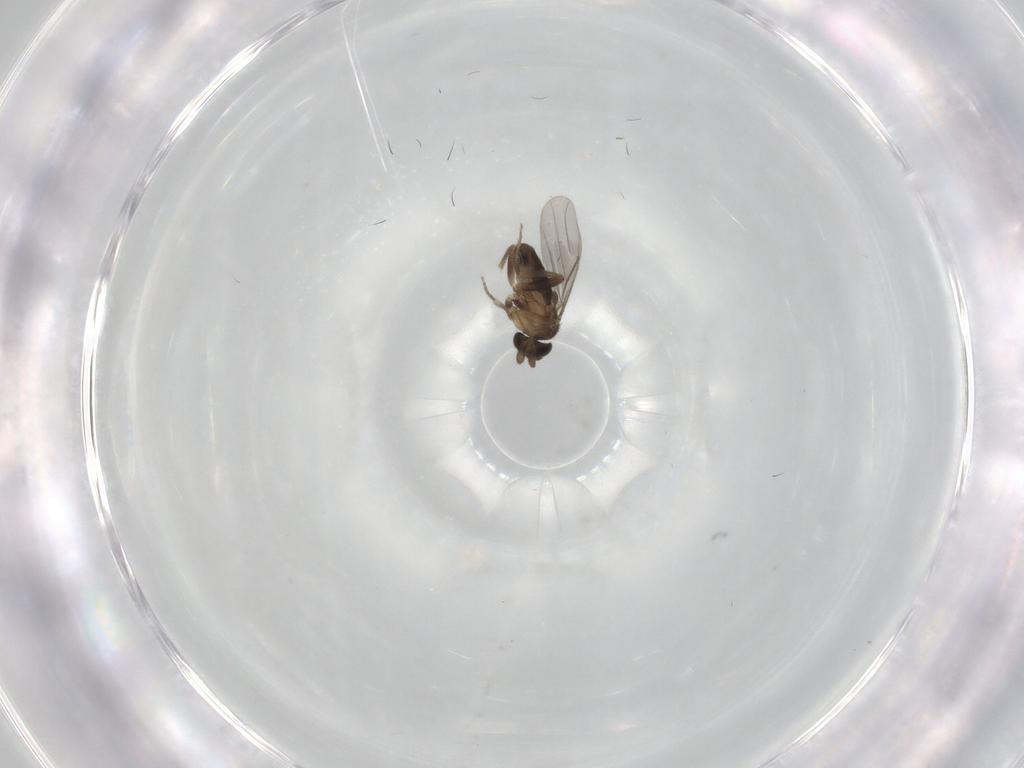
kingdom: Animalia
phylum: Arthropoda
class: Insecta
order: Diptera
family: Sciaridae
